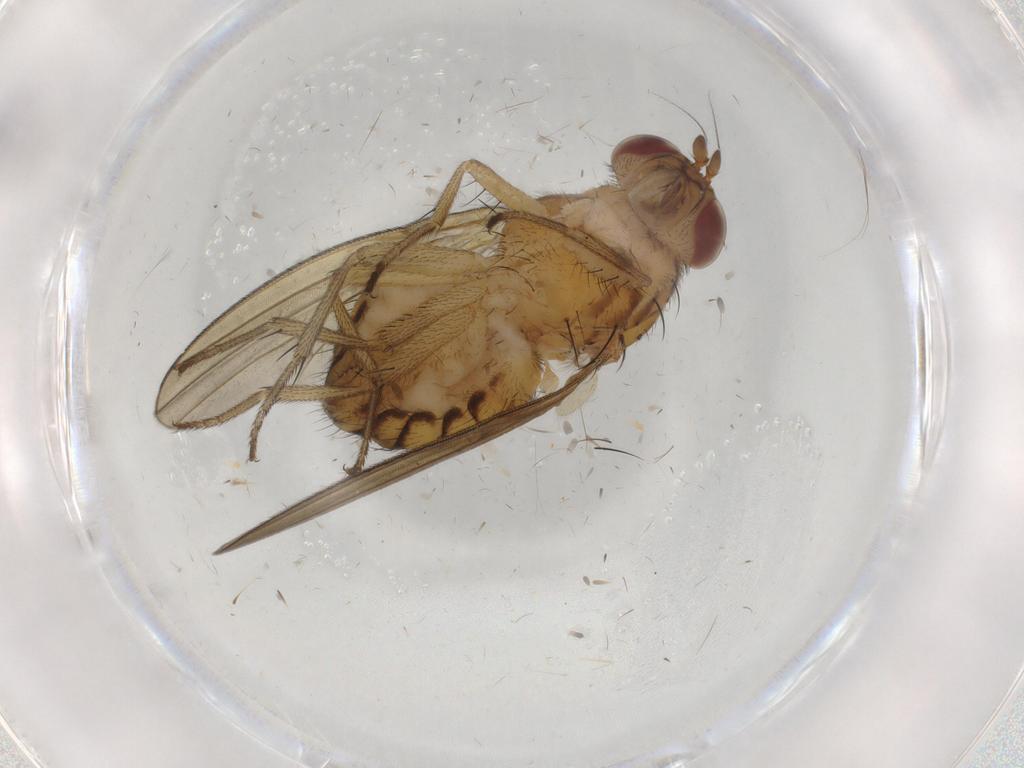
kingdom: Animalia
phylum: Arthropoda
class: Insecta
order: Diptera
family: Lauxaniidae
